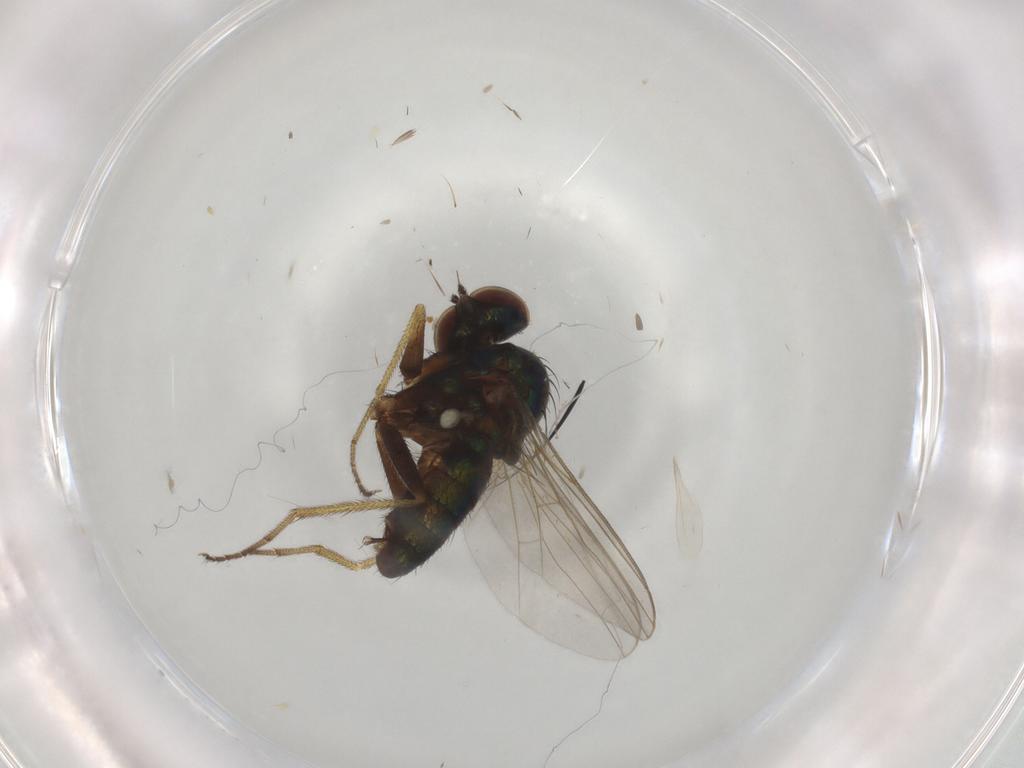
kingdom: Animalia
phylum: Arthropoda
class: Insecta
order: Diptera
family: Dolichopodidae
